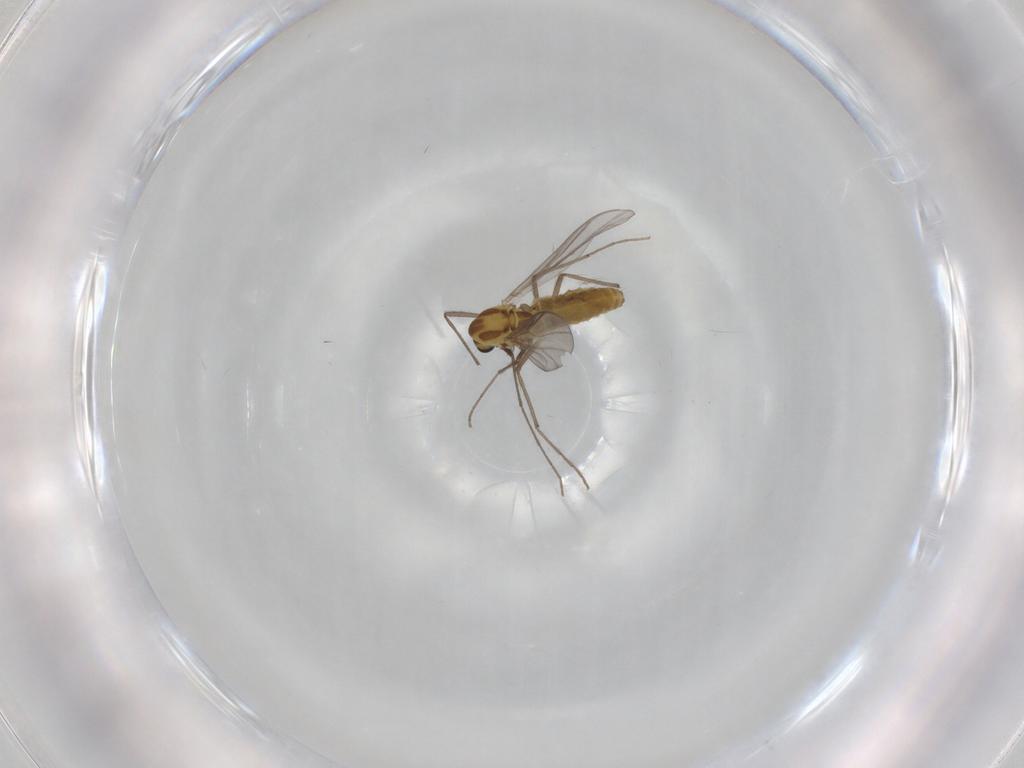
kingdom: Animalia
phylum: Arthropoda
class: Insecta
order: Diptera
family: Chironomidae
